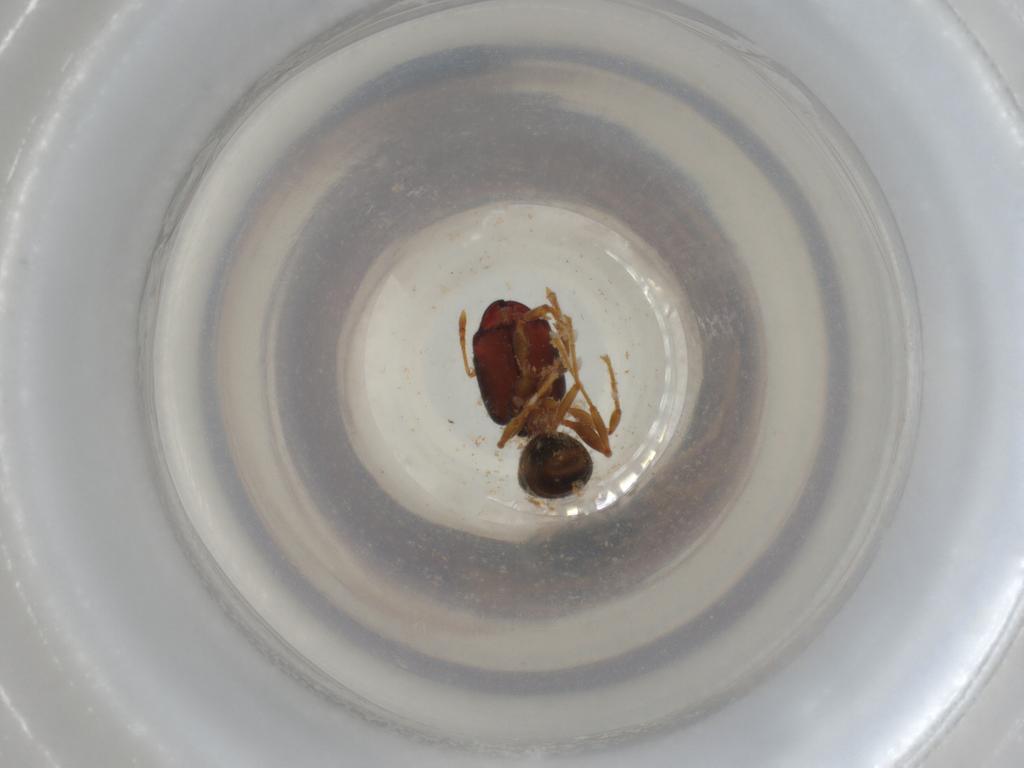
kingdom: Animalia
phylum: Arthropoda
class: Insecta
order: Hymenoptera
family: Formicidae
